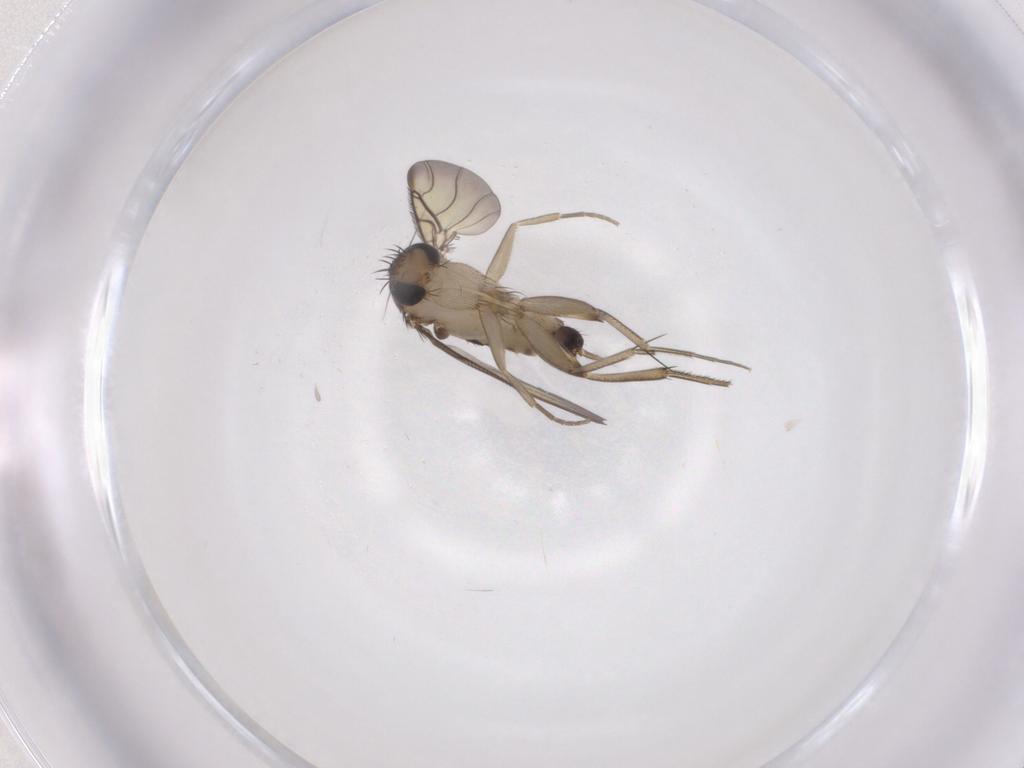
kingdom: Animalia
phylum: Arthropoda
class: Insecta
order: Diptera
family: Phoridae
